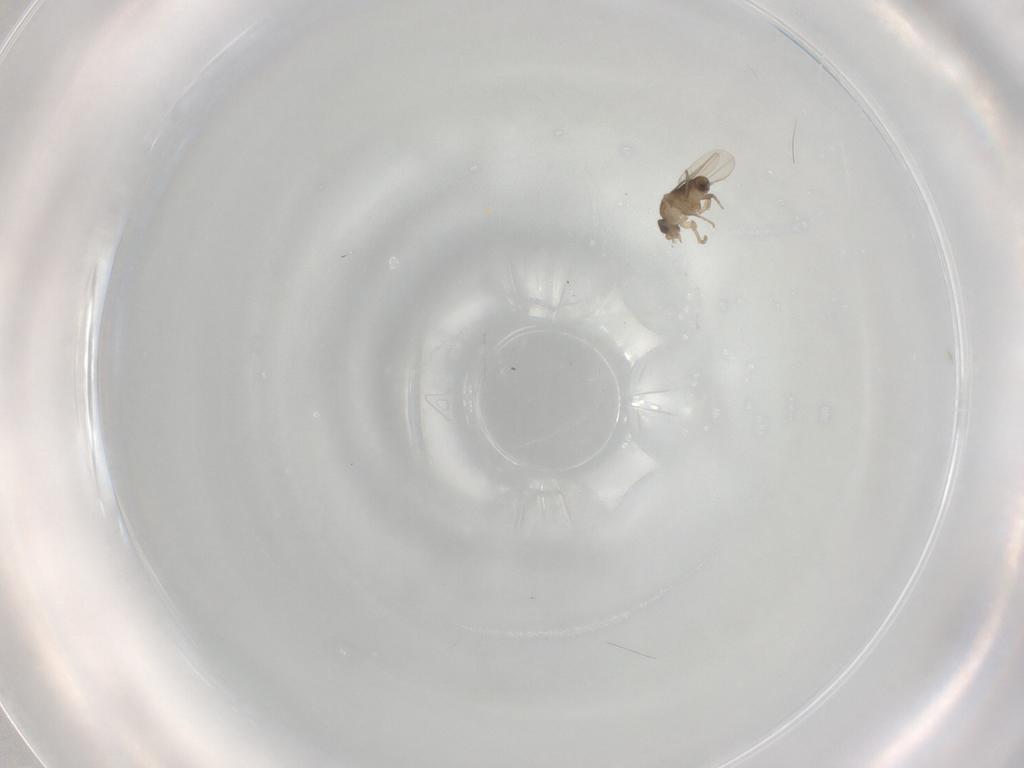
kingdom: Animalia
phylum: Arthropoda
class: Insecta
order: Diptera
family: Phoridae
